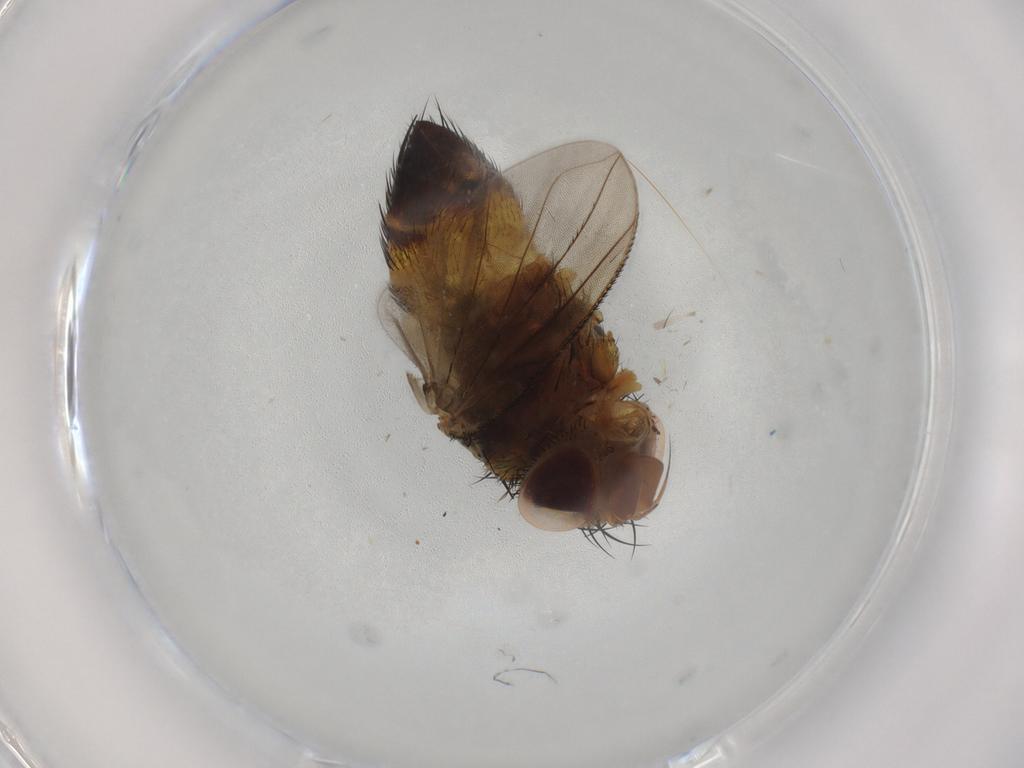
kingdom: Animalia
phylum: Arthropoda
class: Insecta
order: Diptera
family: Tachinidae
